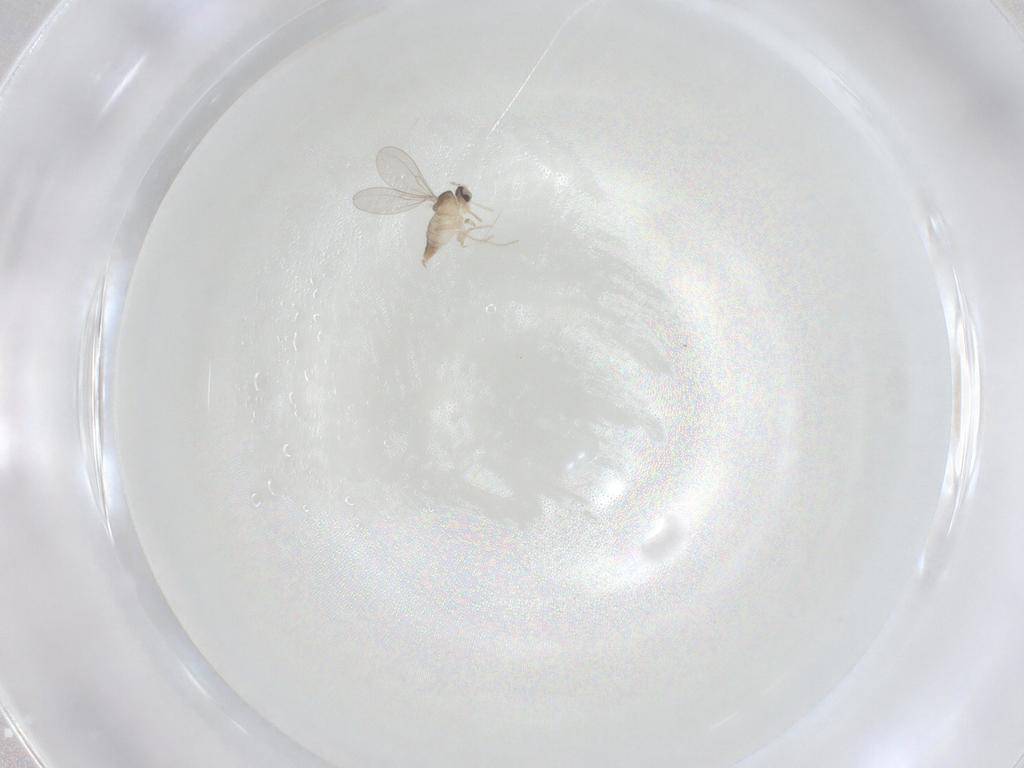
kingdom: Animalia
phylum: Arthropoda
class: Insecta
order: Diptera
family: Cecidomyiidae
